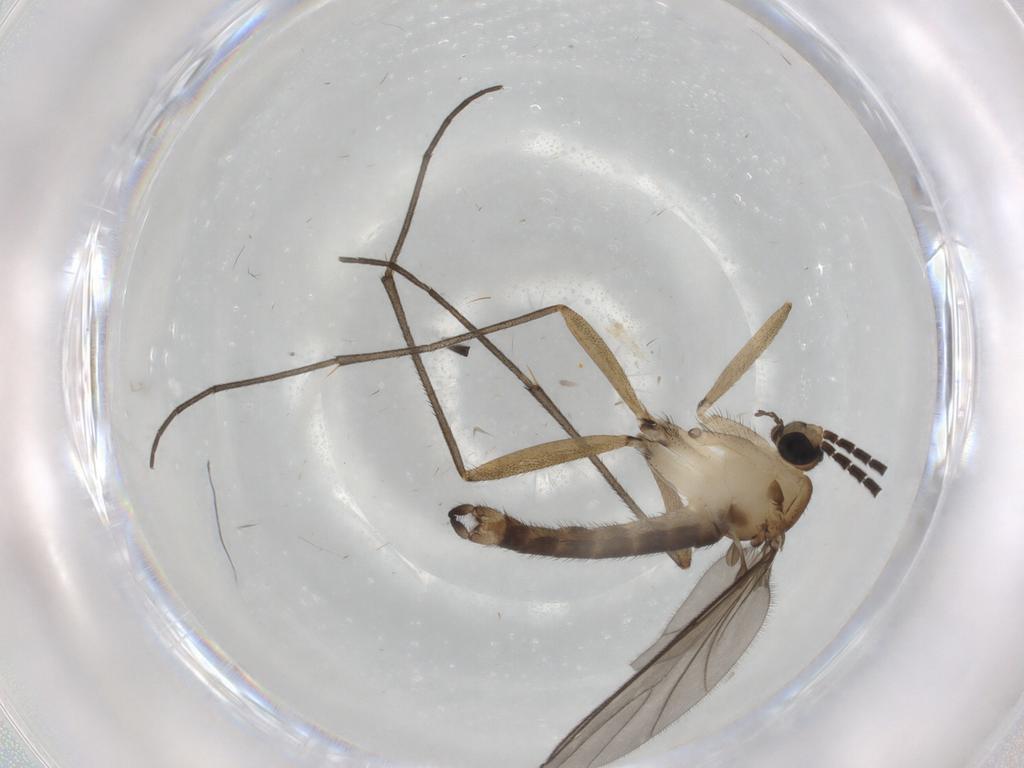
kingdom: Animalia
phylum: Arthropoda
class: Insecta
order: Diptera
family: Sciaridae
